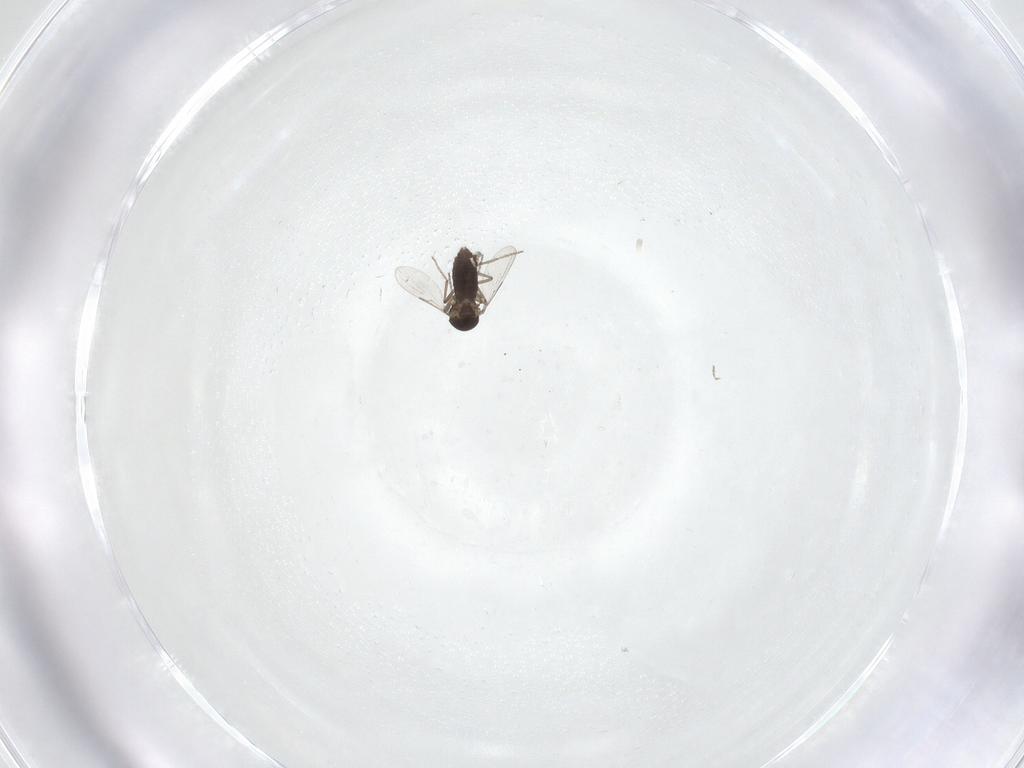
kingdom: Animalia
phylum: Arthropoda
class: Insecta
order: Diptera
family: Ceratopogonidae
